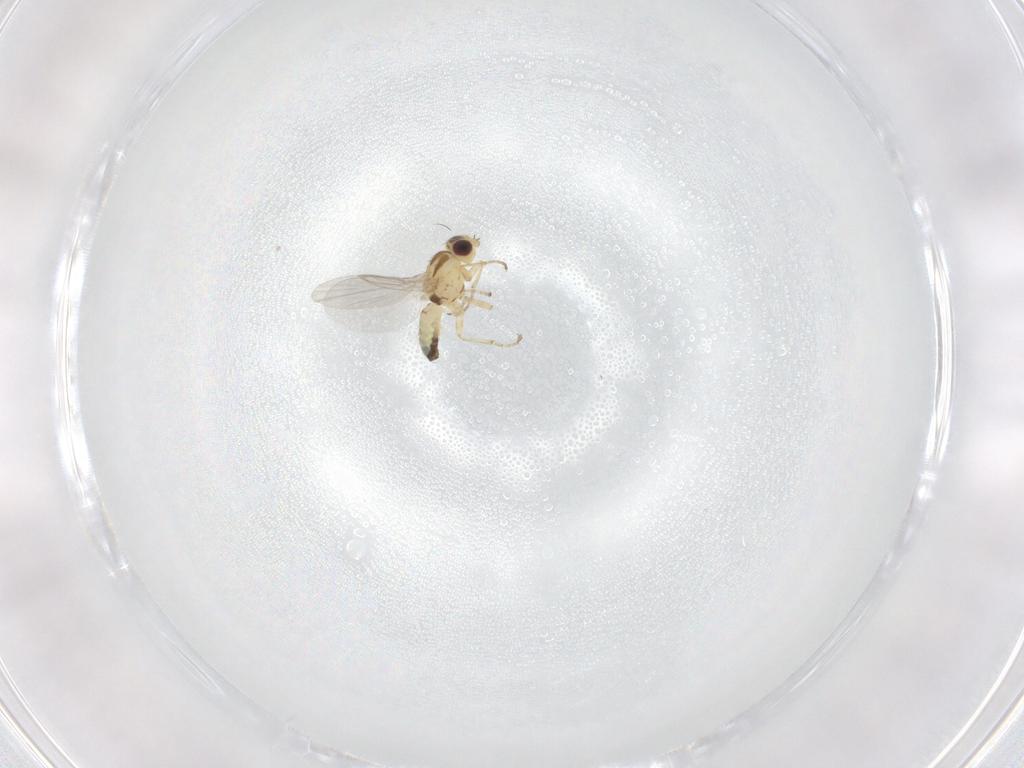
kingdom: Animalia
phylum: Arthropoda
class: Insecta
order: Diptera
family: Agromyzidae
